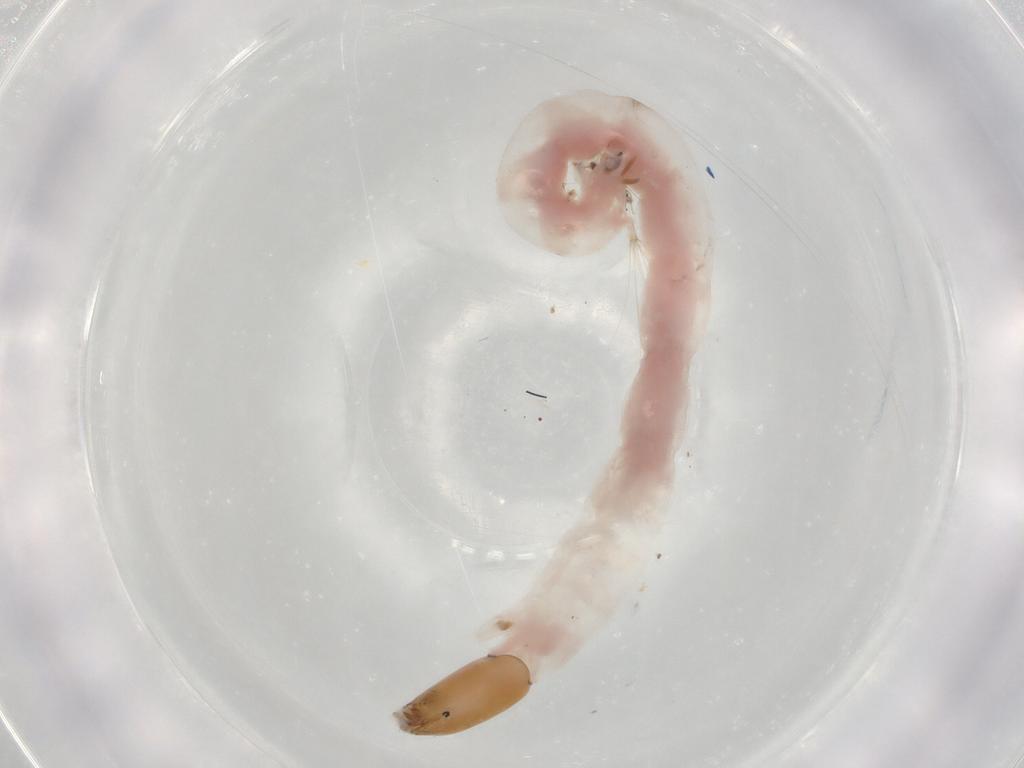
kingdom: Animalia
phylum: Arthropoda
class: Insecta
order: Diptera
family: Chironomidae
